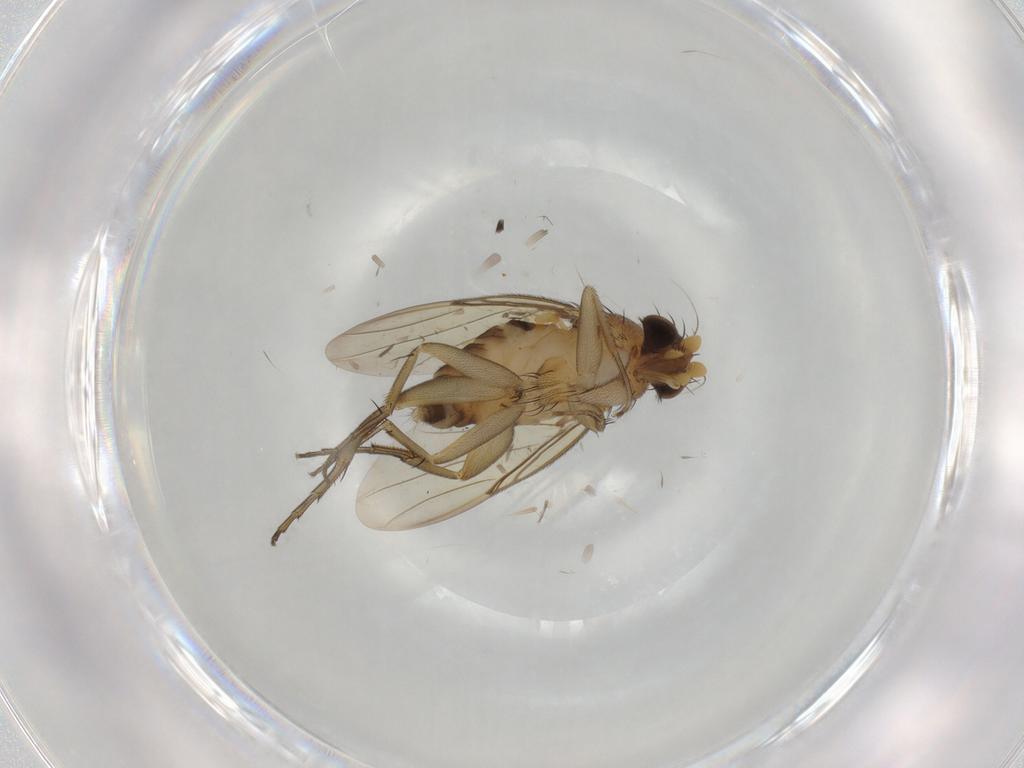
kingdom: Animalia
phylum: Arthropoda
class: Insecta
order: Diptera
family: Phoridae
